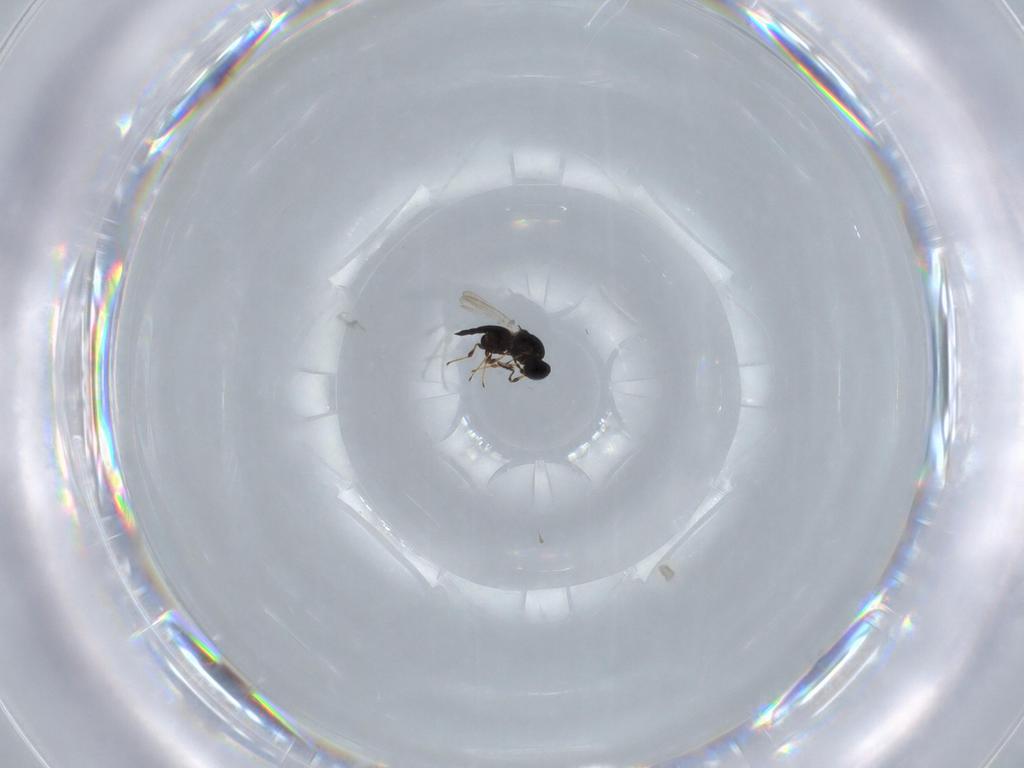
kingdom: Animalia
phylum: Arthropoda
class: Insecta
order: Hymenoptera
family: Platygastridae
